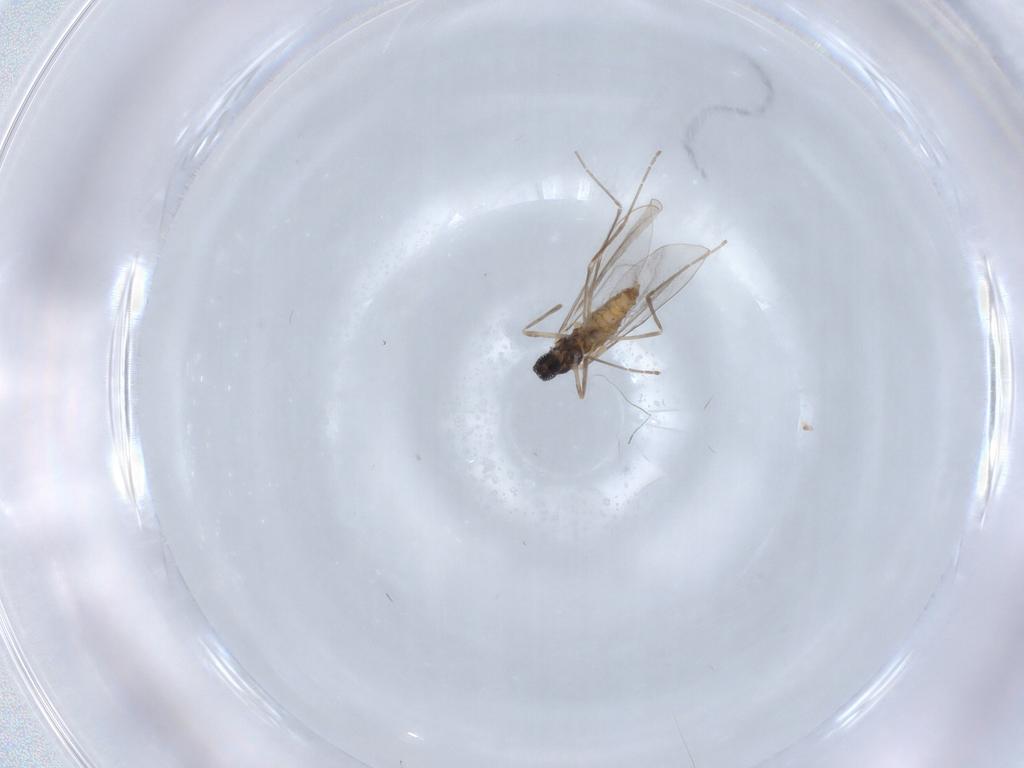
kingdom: Animalia
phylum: Arthropoda
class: Insecta
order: Diptera
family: Cecidomyiidae
